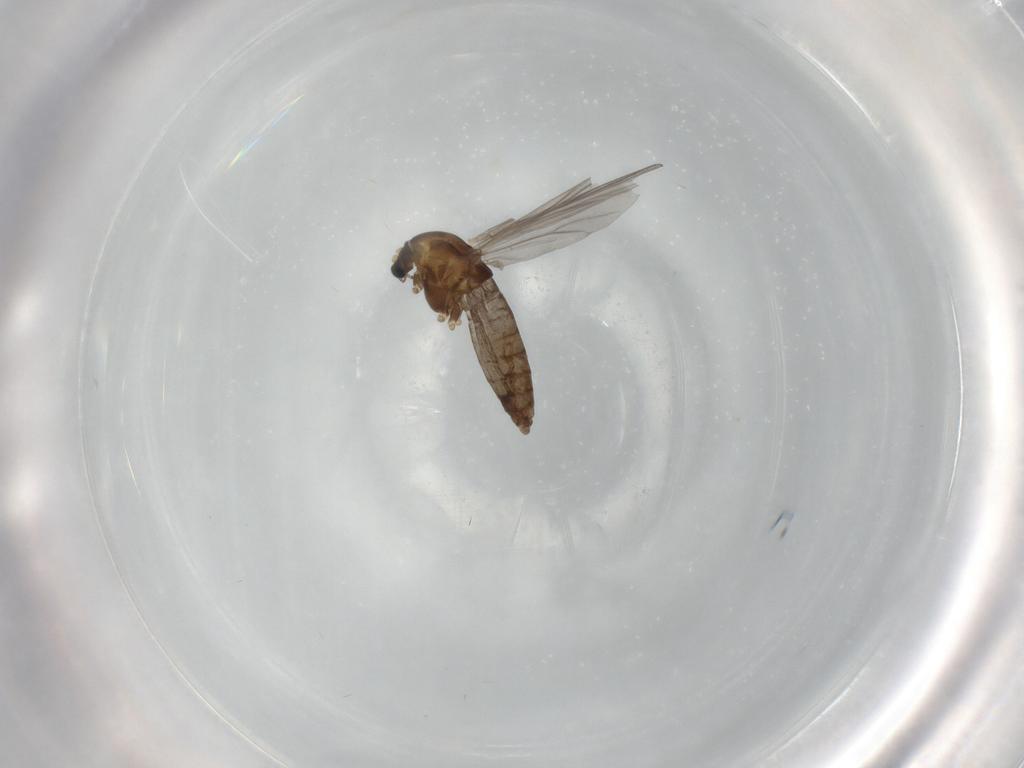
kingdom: Animalia
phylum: Arthropoda
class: Insecta
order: Diptera
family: Chironomidae
